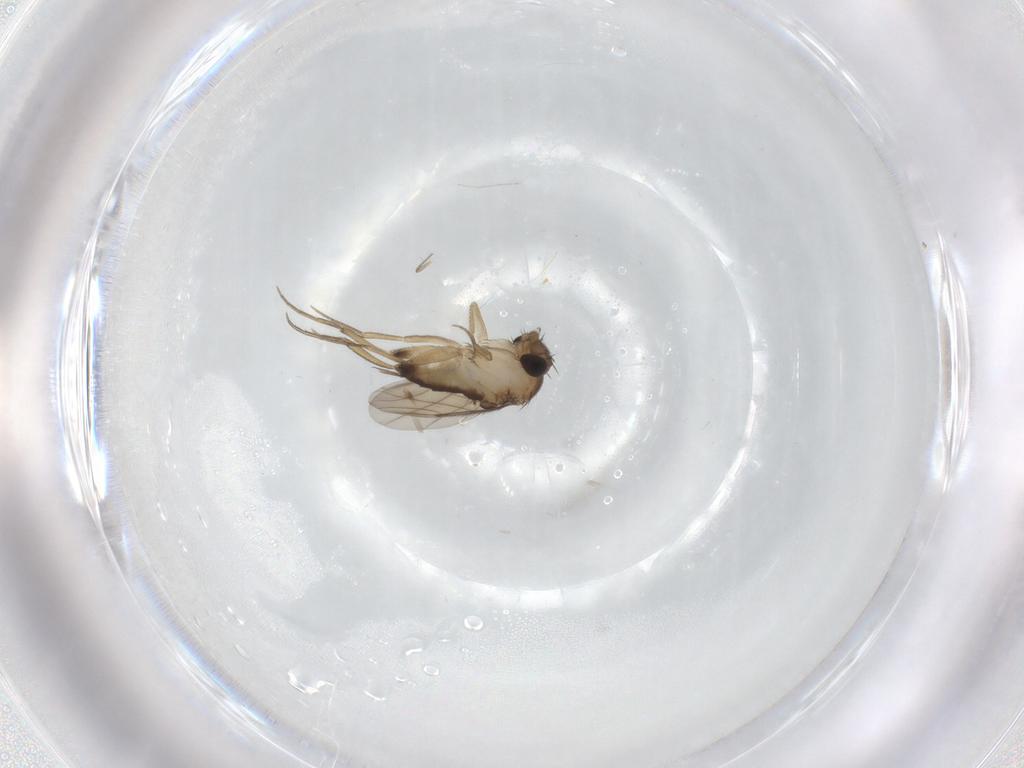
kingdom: Animalia
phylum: Arthropoda
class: Insecta
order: Diptera
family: Phoridae
